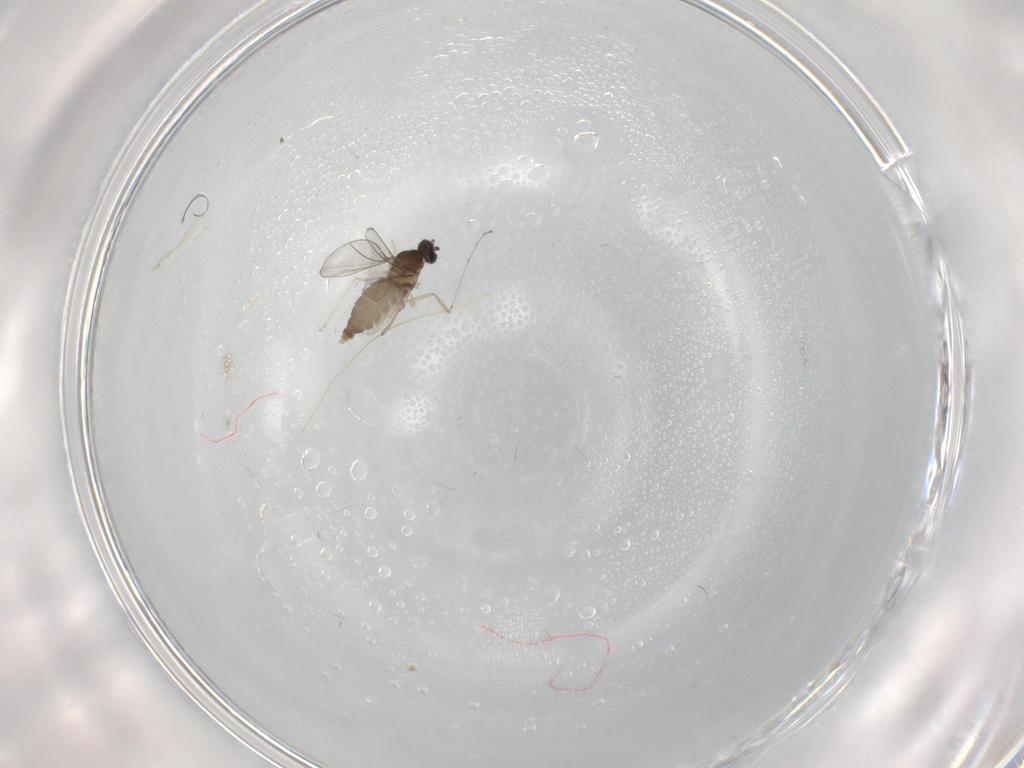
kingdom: Animalia
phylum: Arthropoda
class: Insecta
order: Diptera
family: Cecidomyiidae
